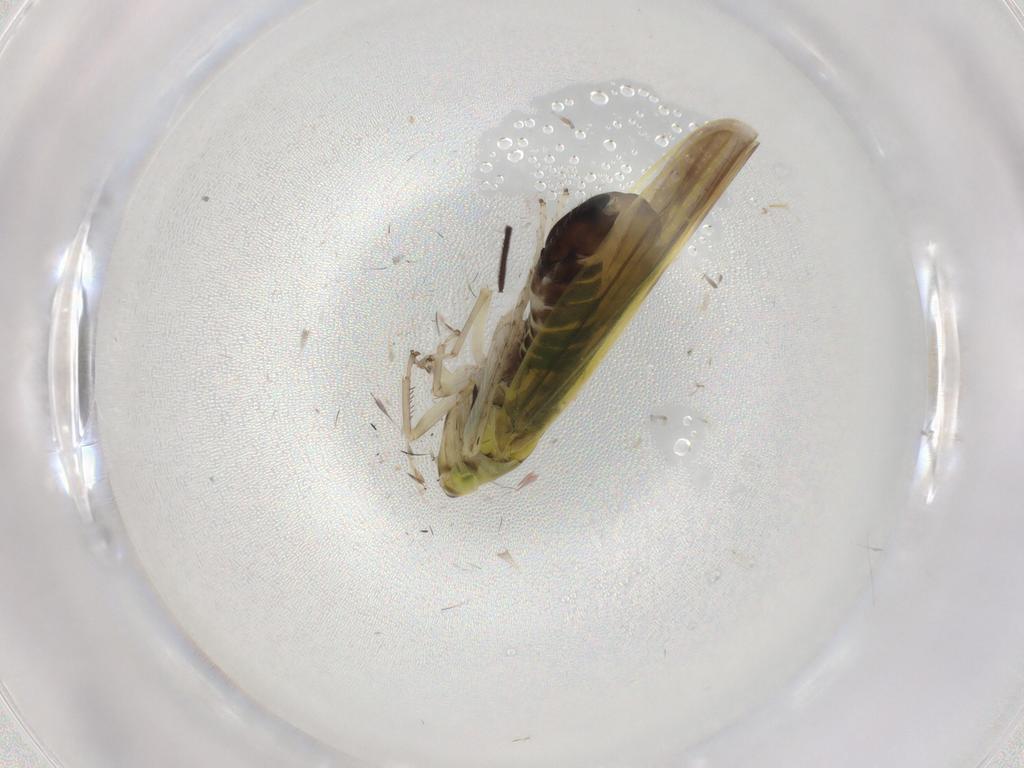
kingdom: Animalia
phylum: Arthropoda
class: Insecta
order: Hemiptera
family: Cicadellidae
